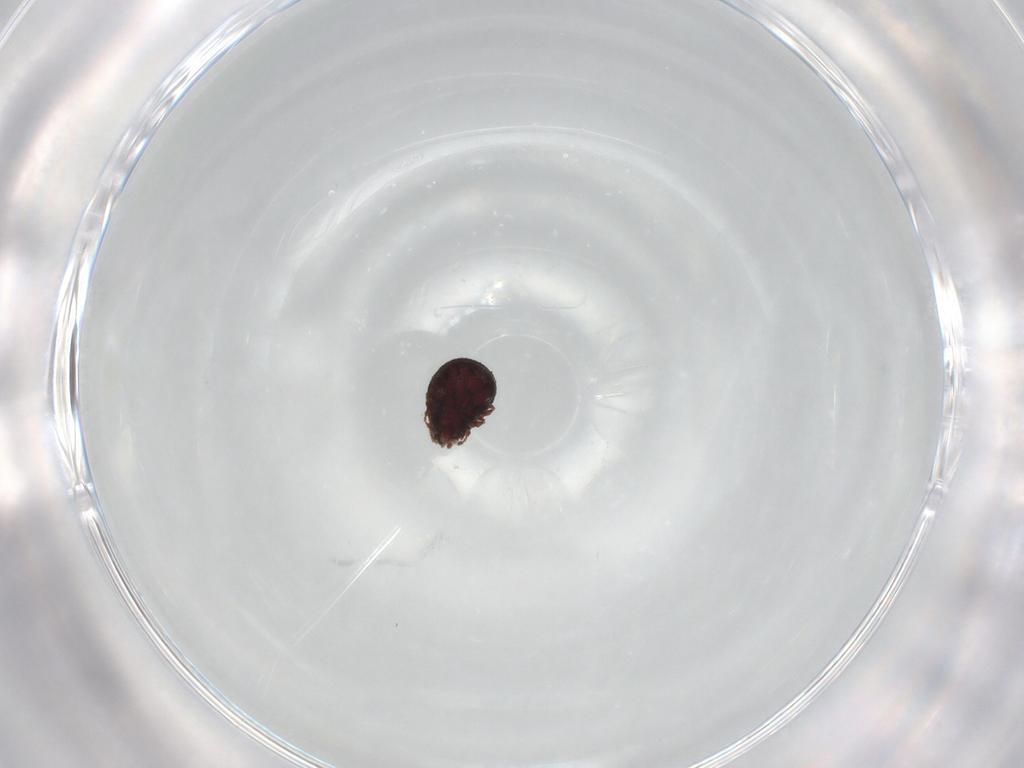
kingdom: Animalia
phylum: Arthropoda
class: Arachnida
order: Sarcoptiformes
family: Cepheusidae
